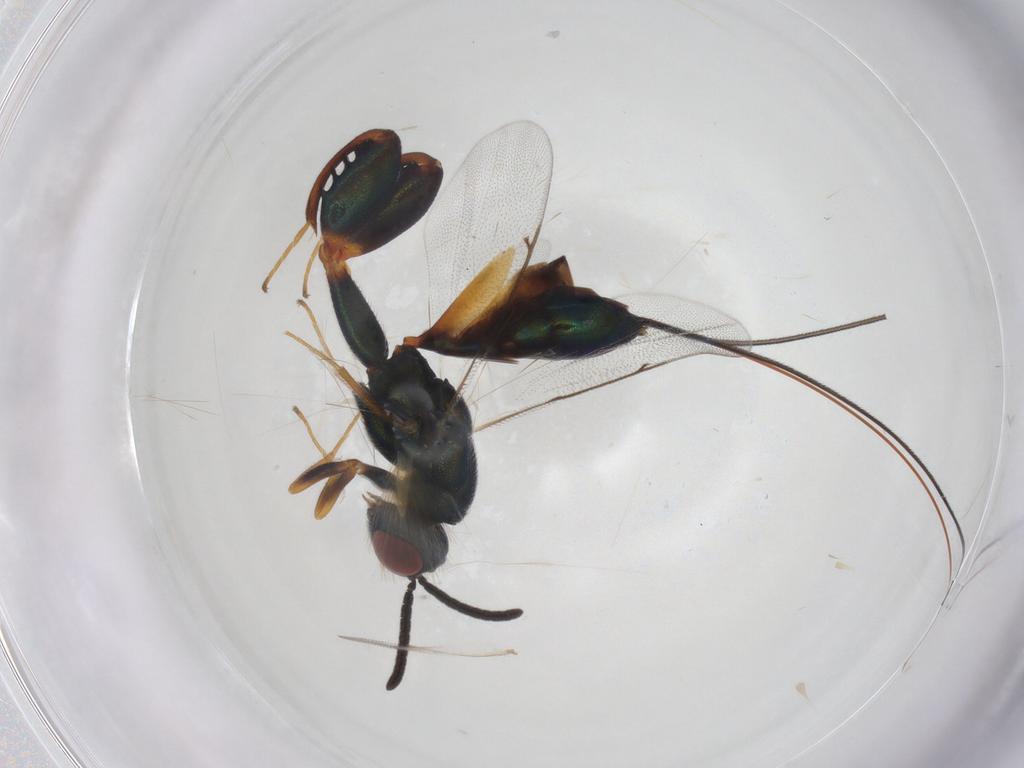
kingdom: Animalia
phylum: Arthropoda
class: Insecta
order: Hymenoptera
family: Torymidae
